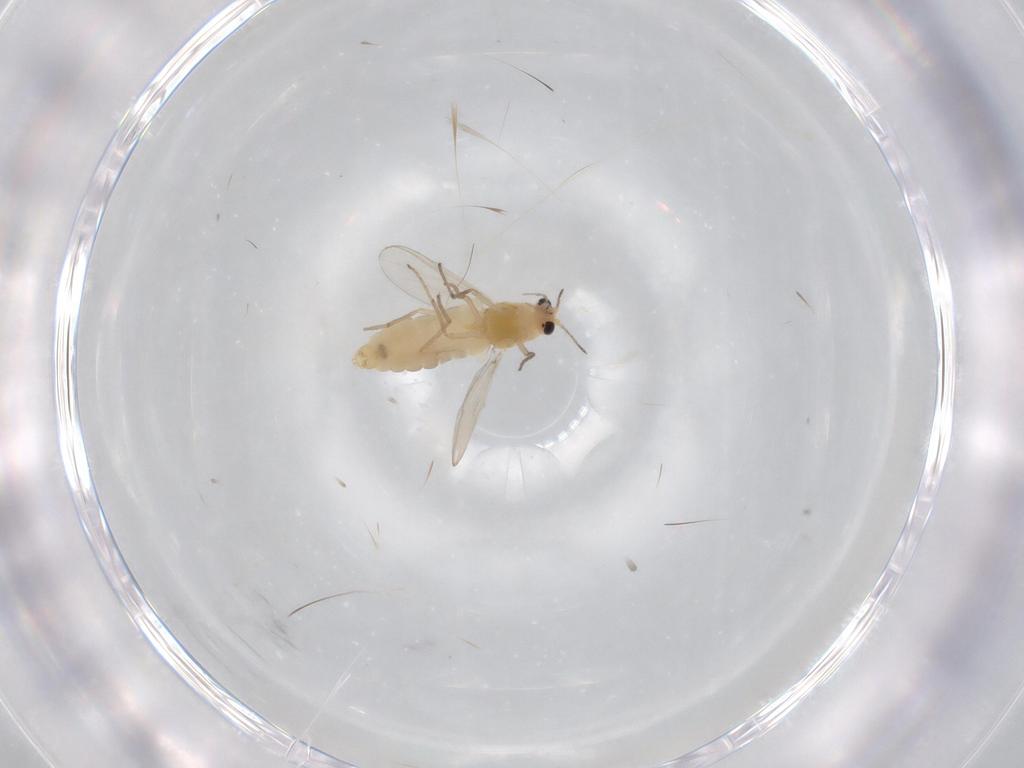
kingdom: Animalia
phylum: Arthropoda
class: Insecta
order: Diptera
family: Chironomidae
